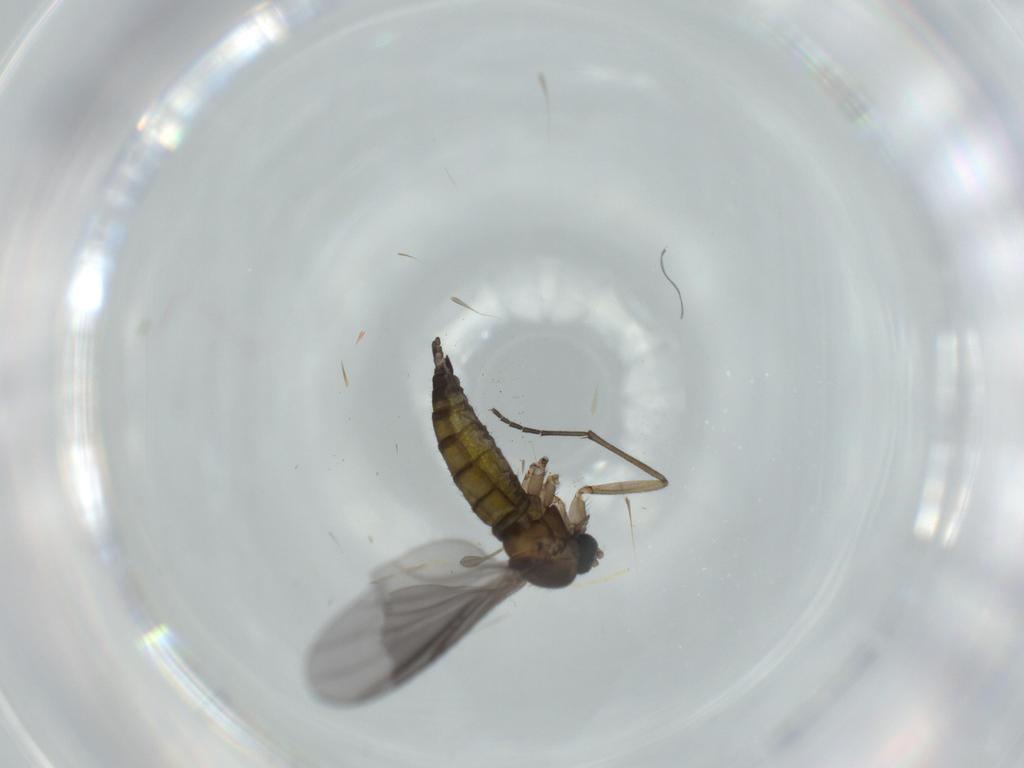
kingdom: Animalia
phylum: Arthropoda
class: Insecta
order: Diptera
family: Sciaridae
